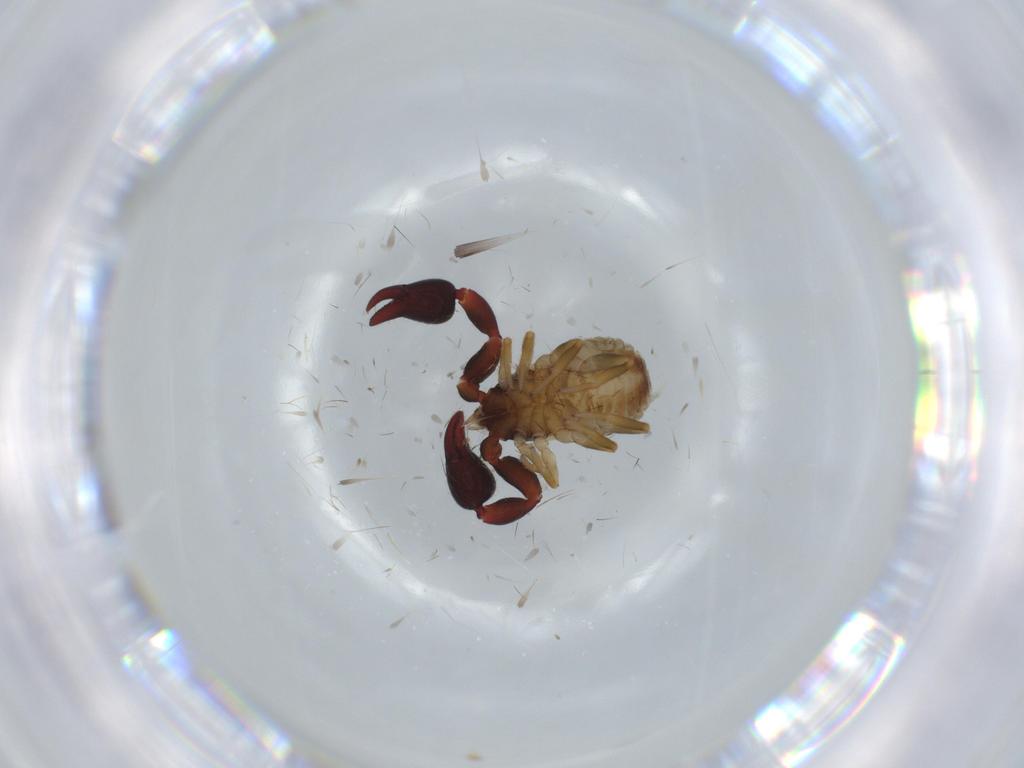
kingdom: Animalia
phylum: Arthropoda
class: Arachnida
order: Pseudoscorpiones
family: Chernetidae
